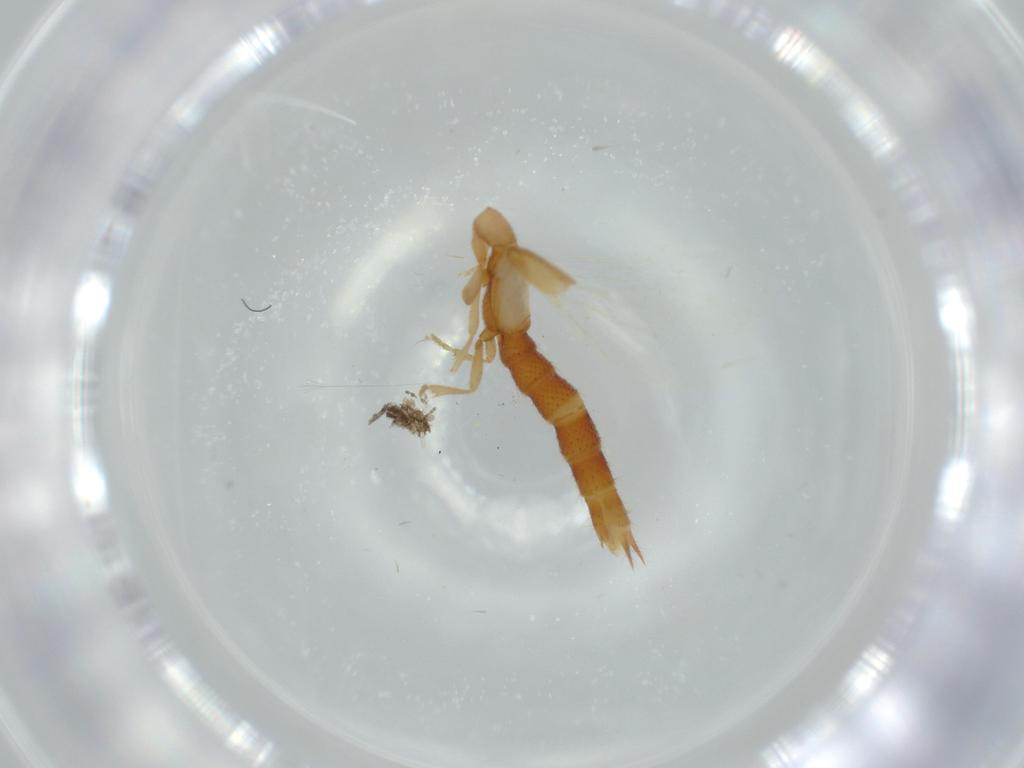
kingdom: Animalia
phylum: Arthropoda
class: Insecta
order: Coleoptera
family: Staphylinidae
